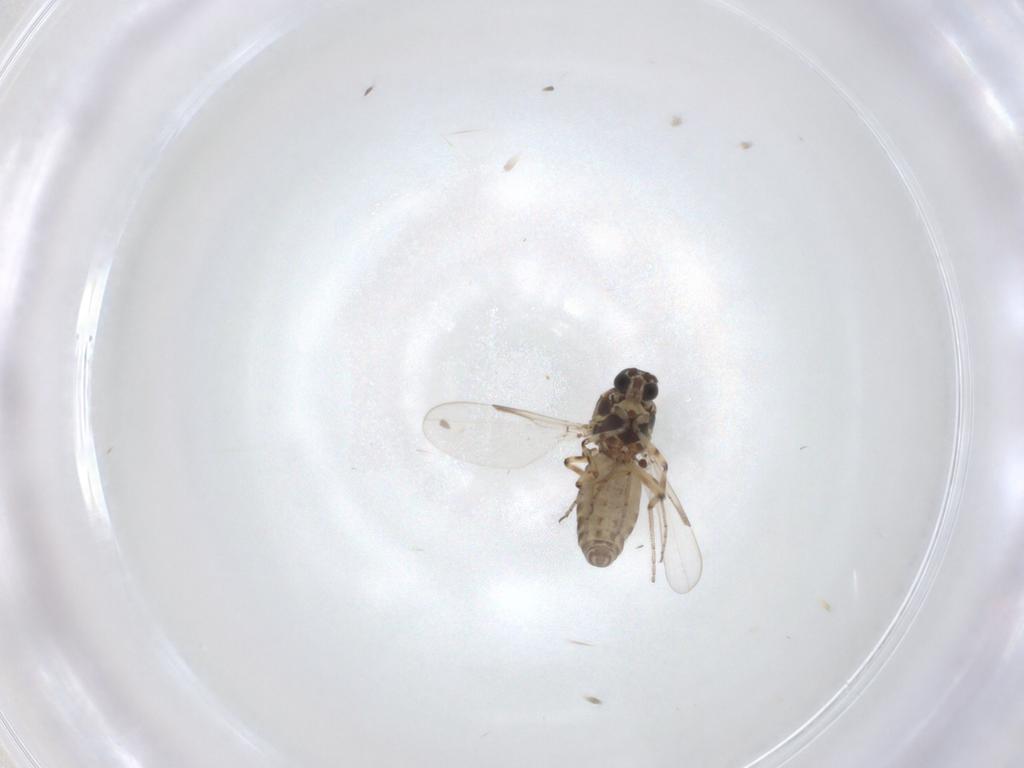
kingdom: Animalia
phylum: Arthropoda
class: Insecta
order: Diptera
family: Ceratopogonidae
